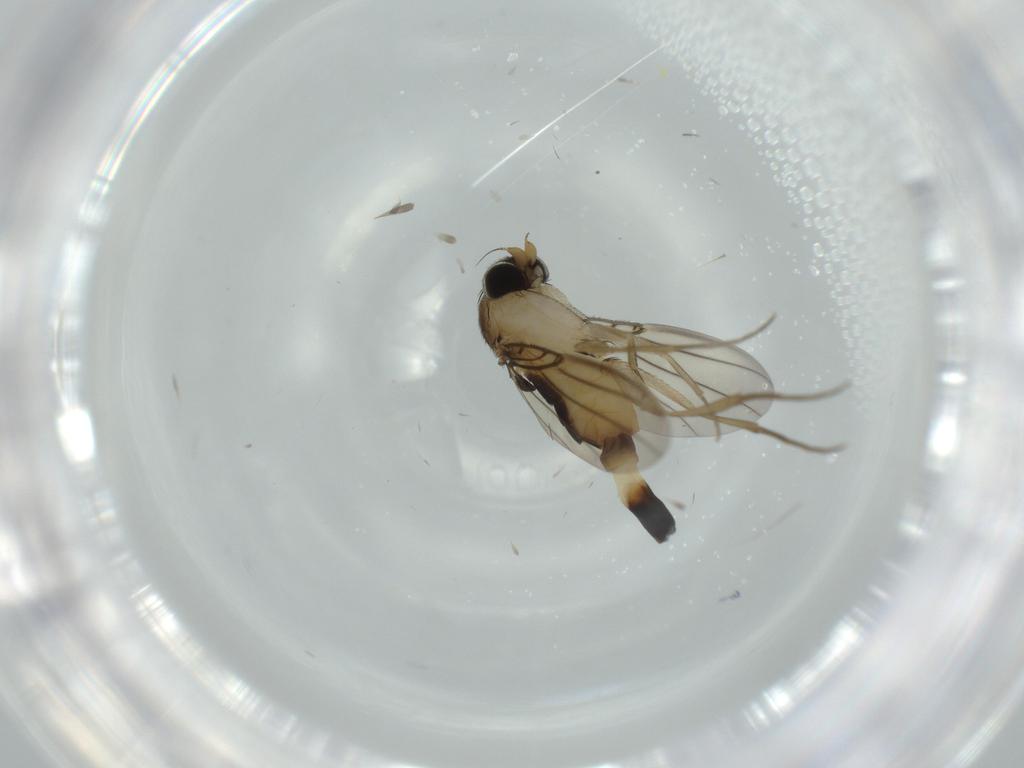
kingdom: Animalia
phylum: Arthropoda
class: Insecta
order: Diptera
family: Phoridae
